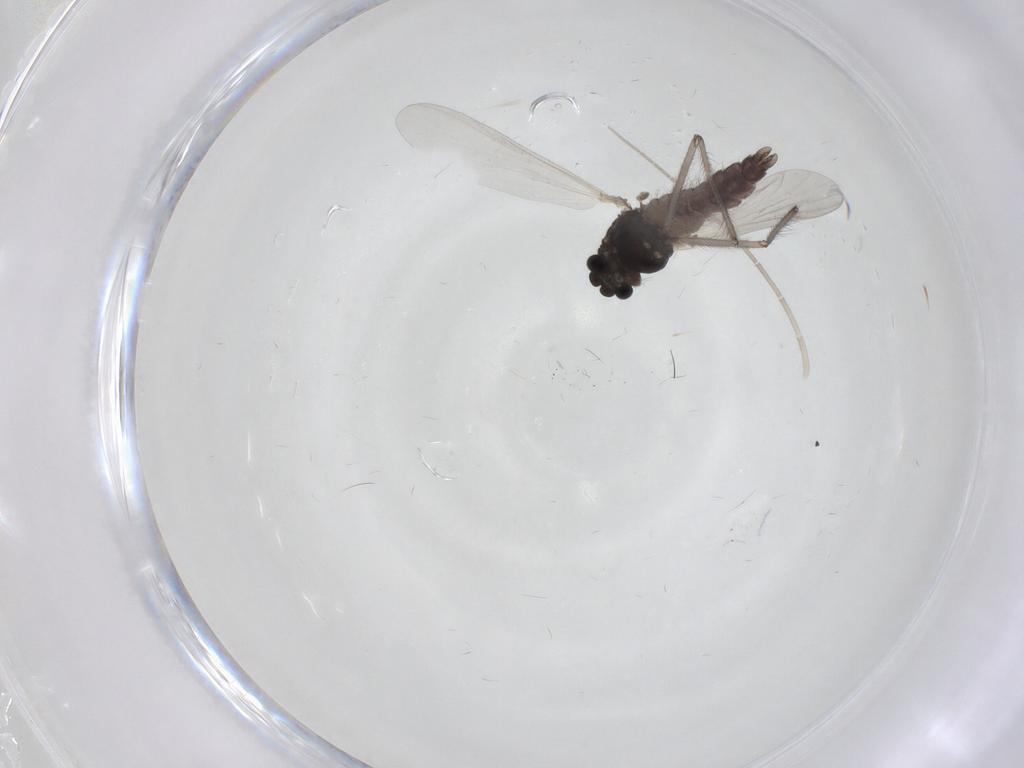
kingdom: Animalia
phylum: Arthropoda
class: Insecta
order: Diptera
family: Chironomidae
